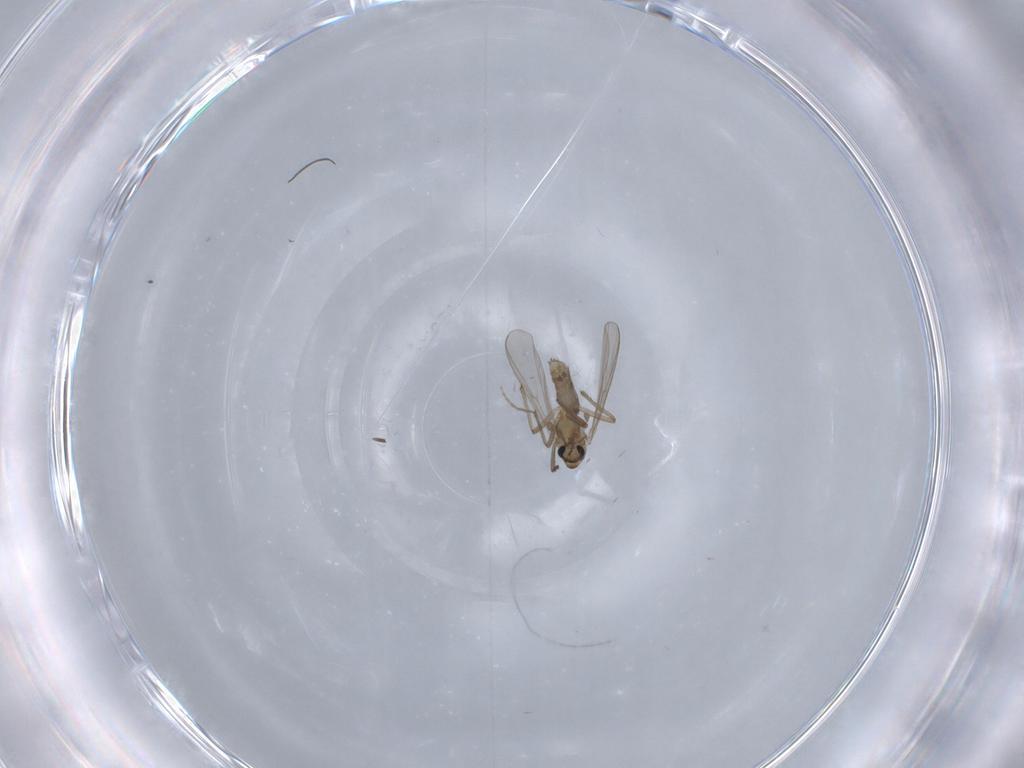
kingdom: Animalia
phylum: Arthropoda
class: Insecta
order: Diptera
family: Chironomidae
